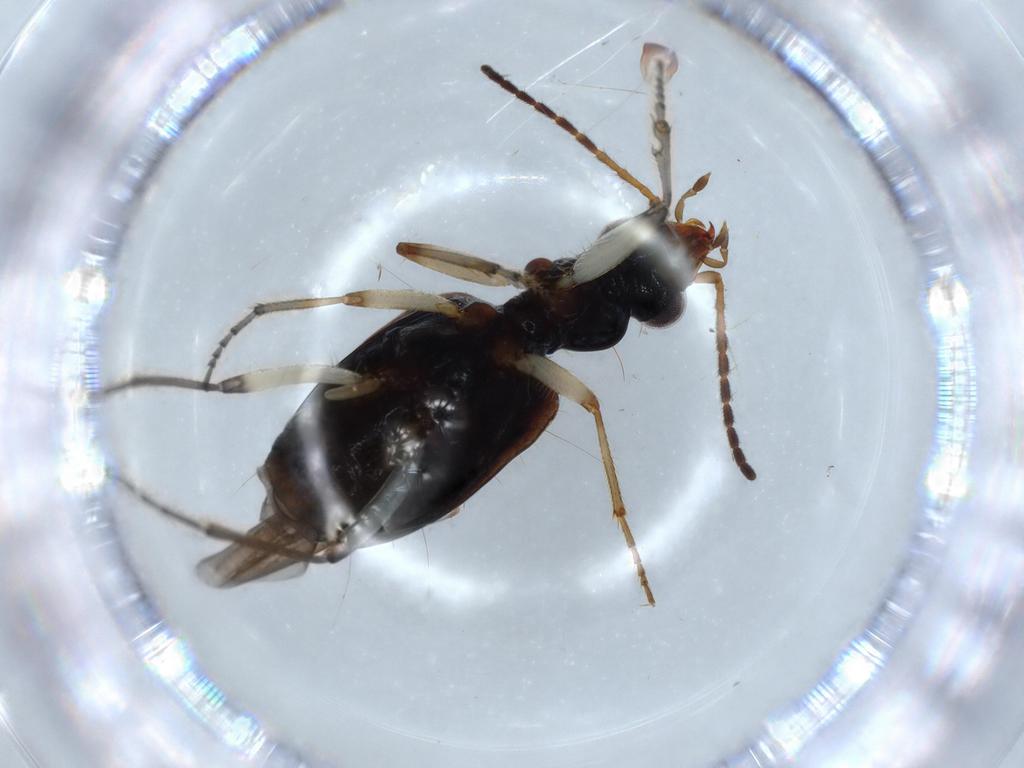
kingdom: Animalia
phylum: Arthropoda
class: Insecta
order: Coleoptera
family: Carabidae
